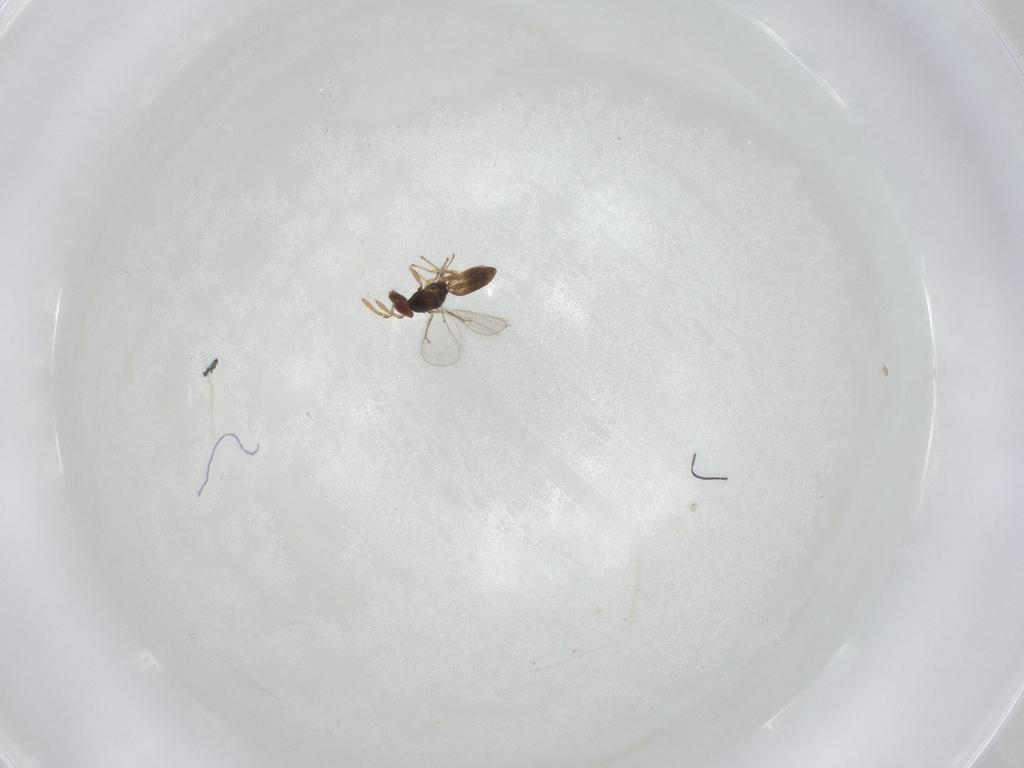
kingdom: Animalia
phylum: Arthropoda
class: Insecta
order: Hymenoptera
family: Eulophidae
